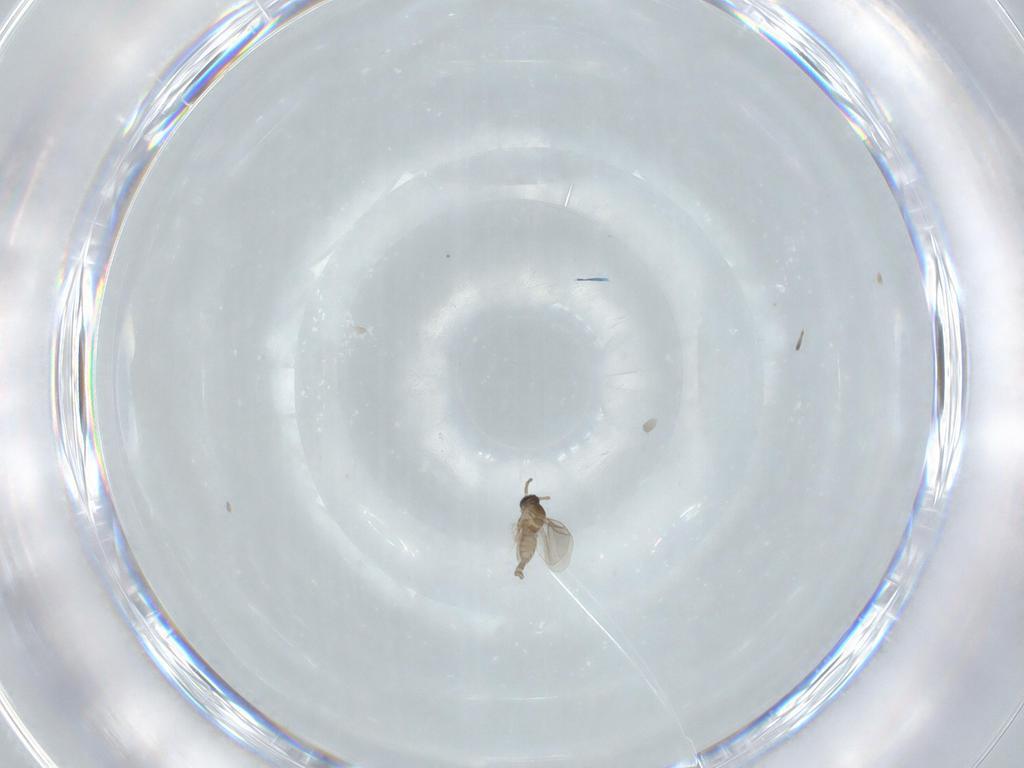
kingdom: Animalia
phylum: Arthropoda
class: Insecta
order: Diptera
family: Cecidomyiidae
